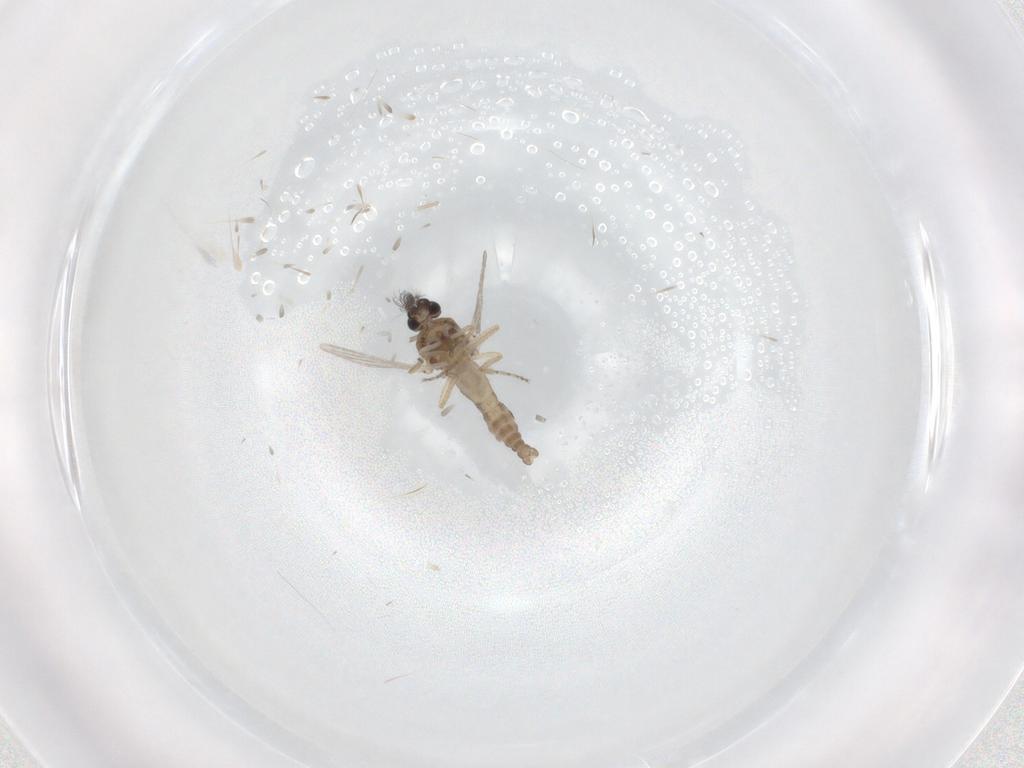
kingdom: Animalia
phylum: Arthropoda
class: Insecta
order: Diptera
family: Ceratopogonidae
